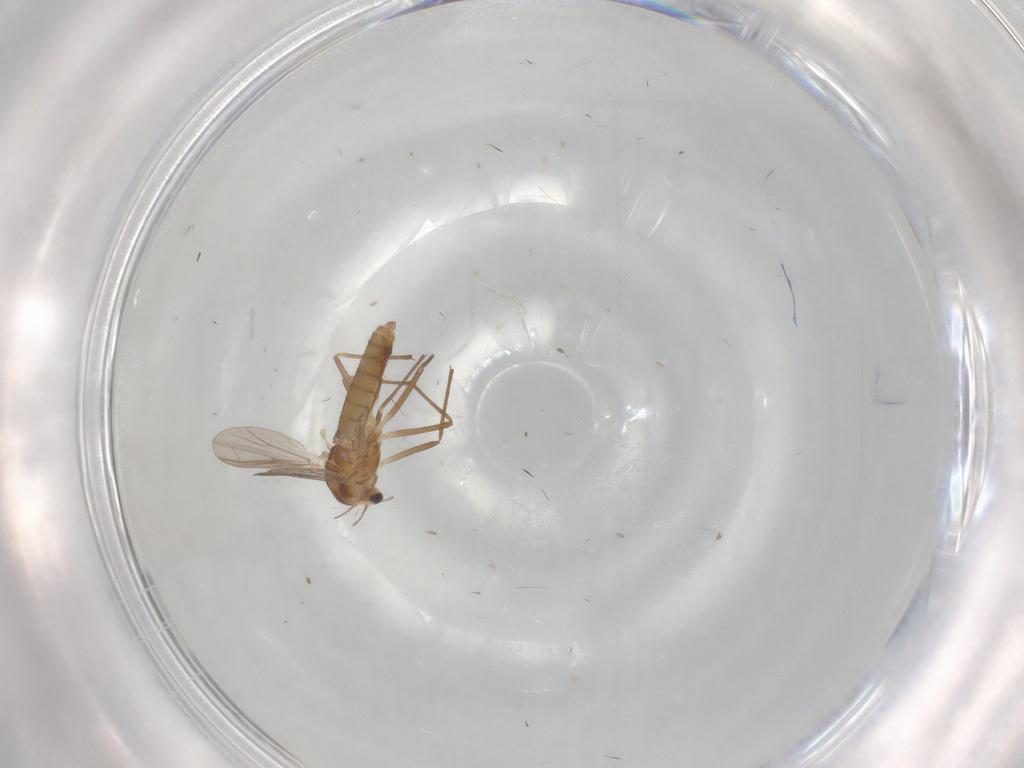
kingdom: Animalia
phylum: Arthropoda
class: Insecta
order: Diptera
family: Chironomidae
